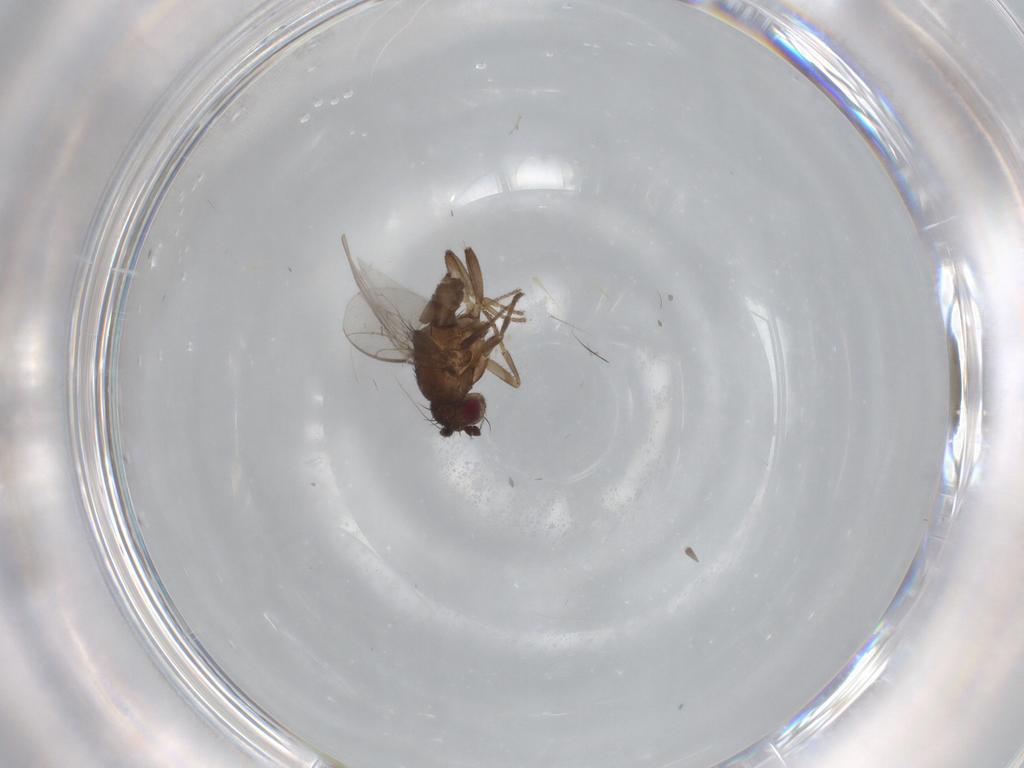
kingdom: Animalia
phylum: Arthropoda
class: Insecta
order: Diptera
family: Sphaeroceridae
